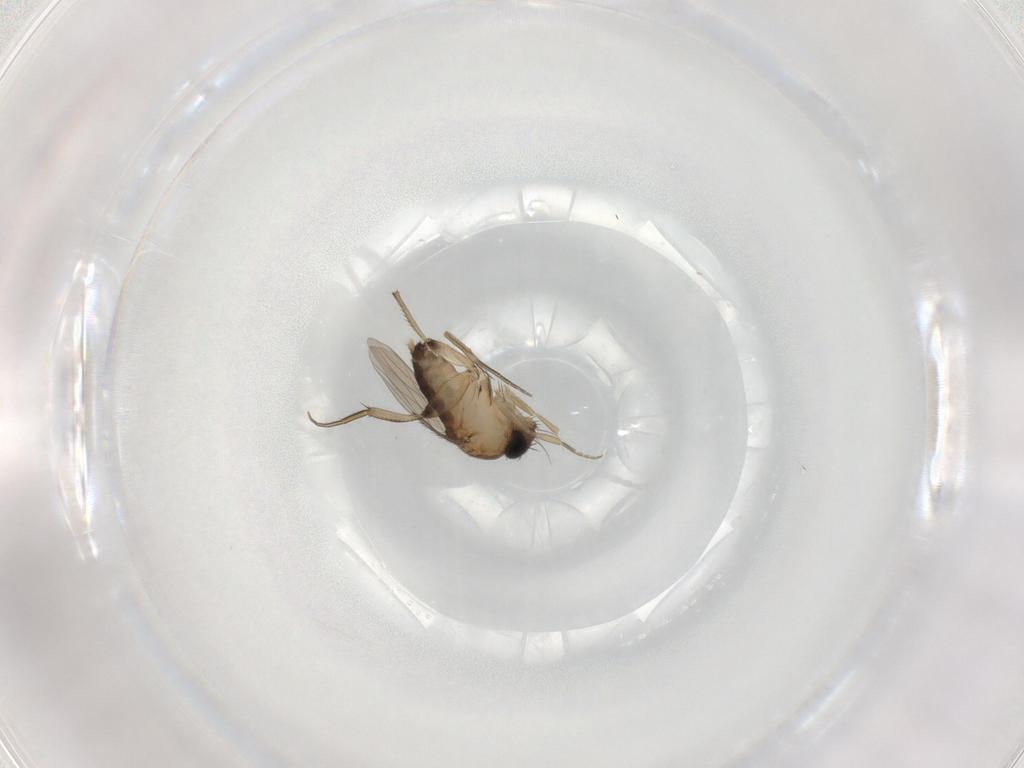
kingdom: Animalia
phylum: Arthropoda
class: Insecta
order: Diptera
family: Phoridae
